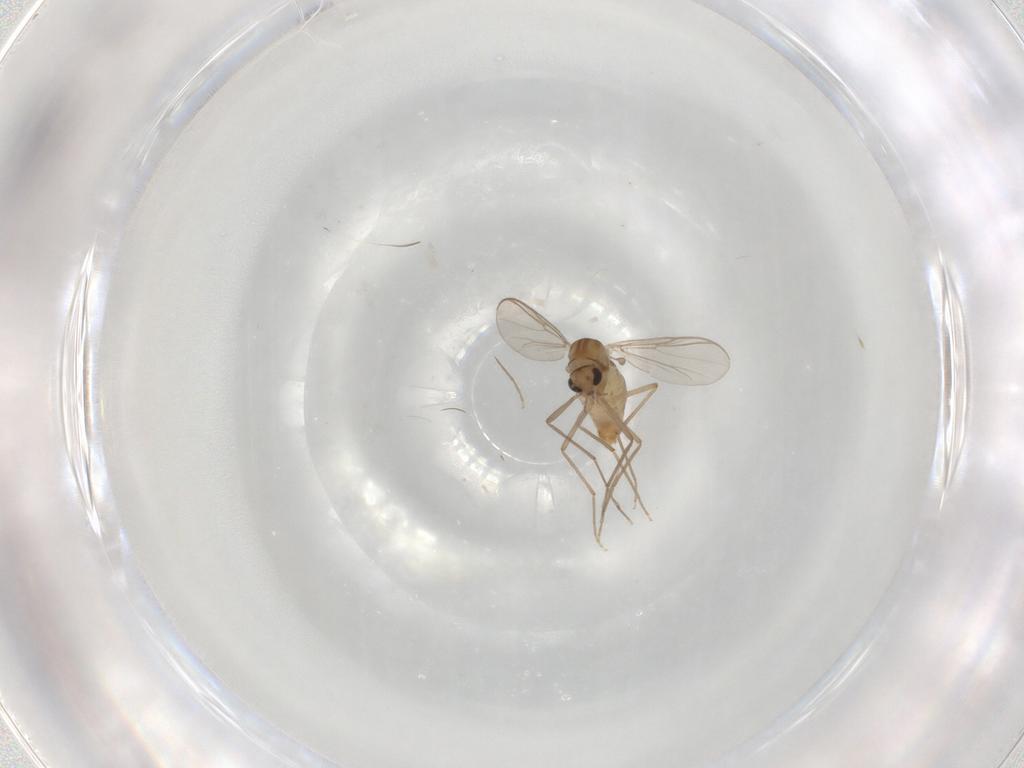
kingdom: Animalia
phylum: Arthropoda
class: Insecta
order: Diptera
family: Chironomidae
